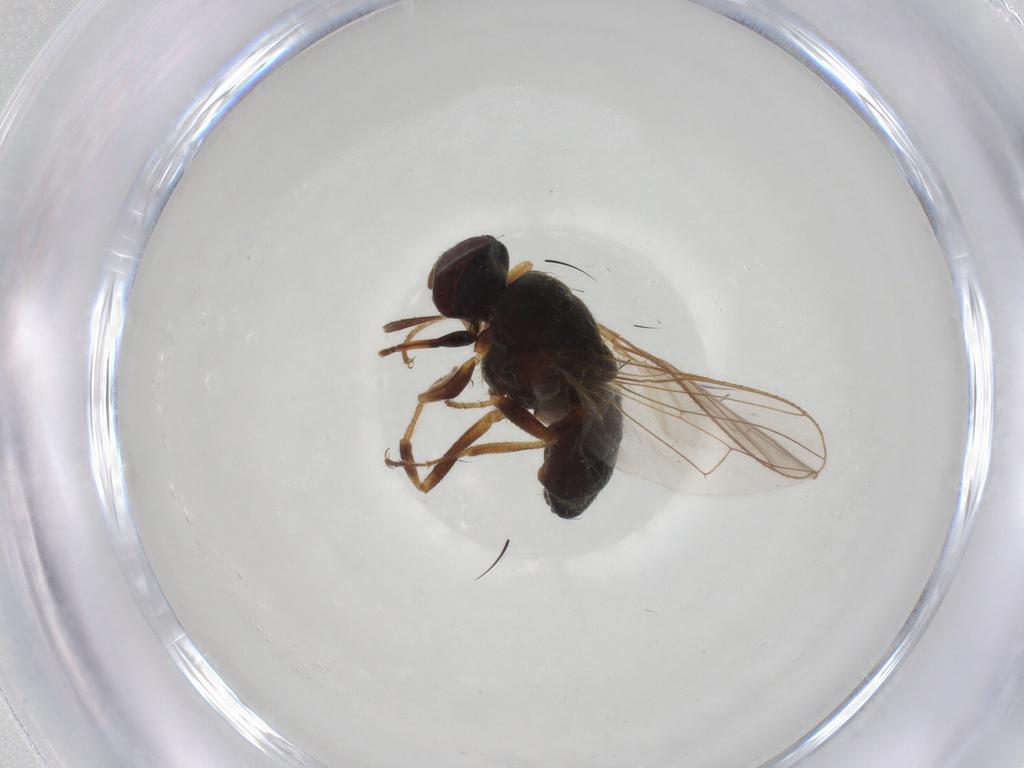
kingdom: Animalia
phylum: Arthropoda
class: Insecta
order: Diptera
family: Muscidae
